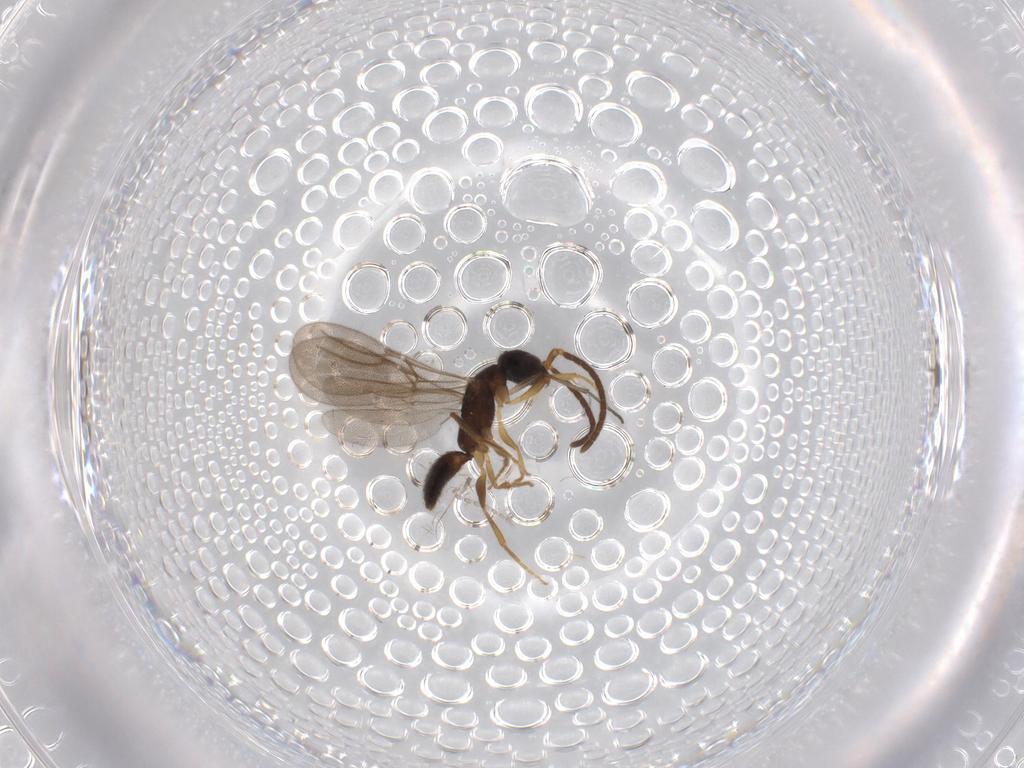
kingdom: Animalia
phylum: Arthropoda
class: Insecta
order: Hymenoptera
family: Bethylidae
